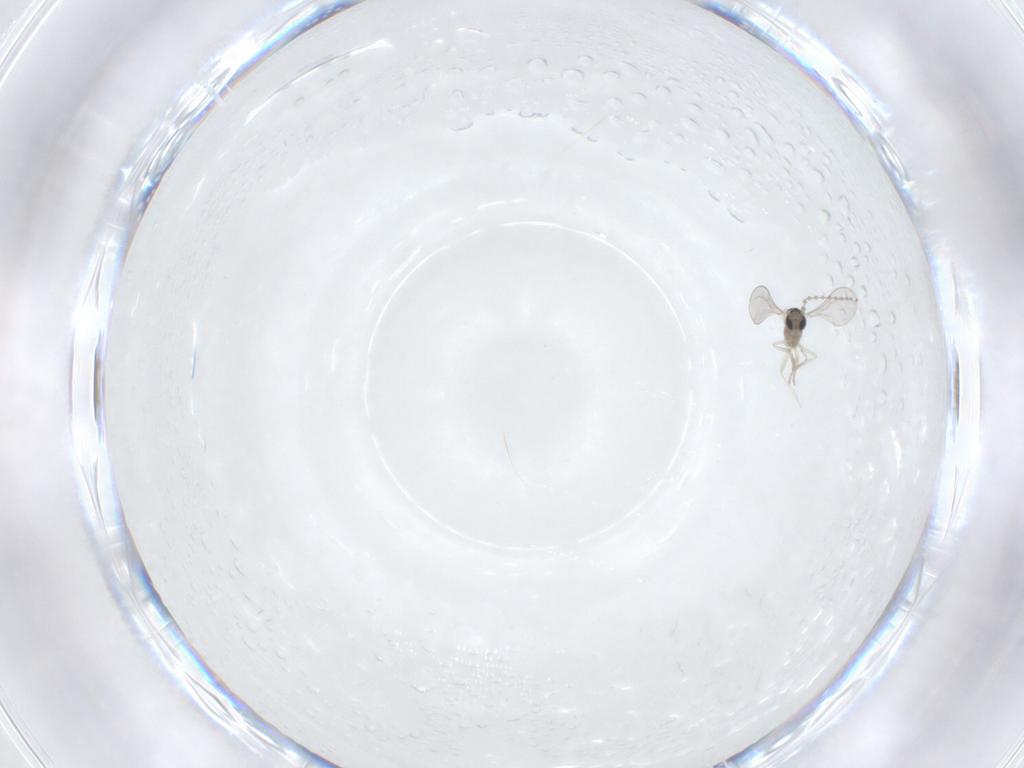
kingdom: Animalia
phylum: Arthropoda
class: Insecta
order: Diptera
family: Cecidomyiidae
